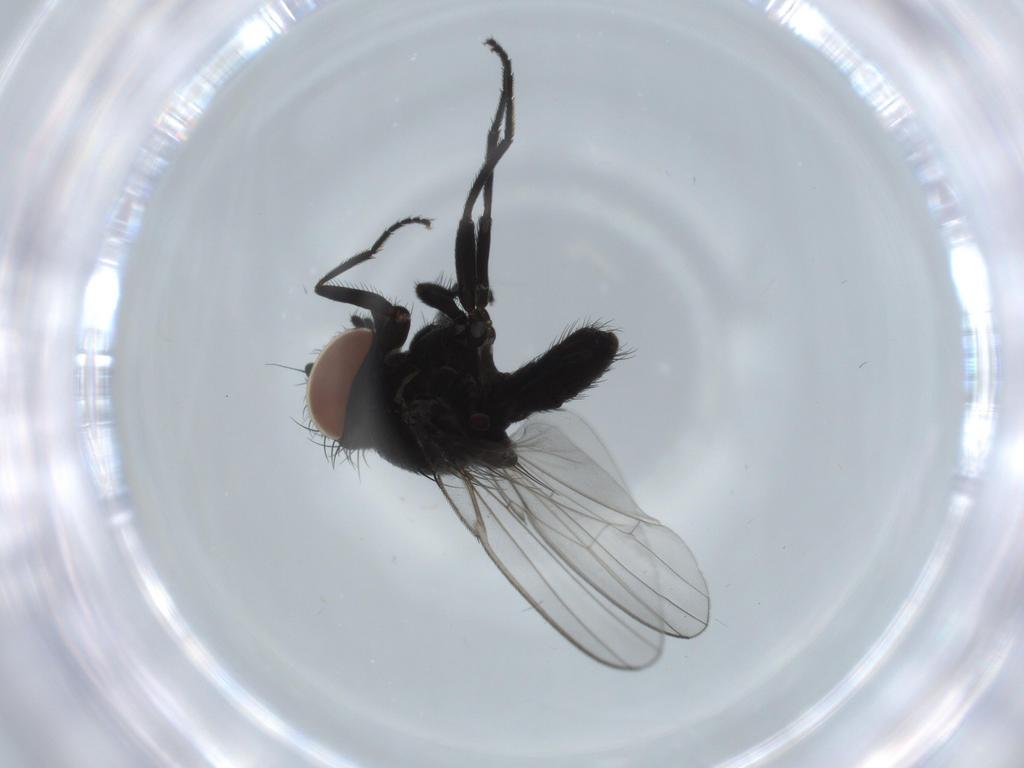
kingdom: Animalia
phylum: Arthropoda
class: Insecta
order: Diptera
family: Milichiidae
